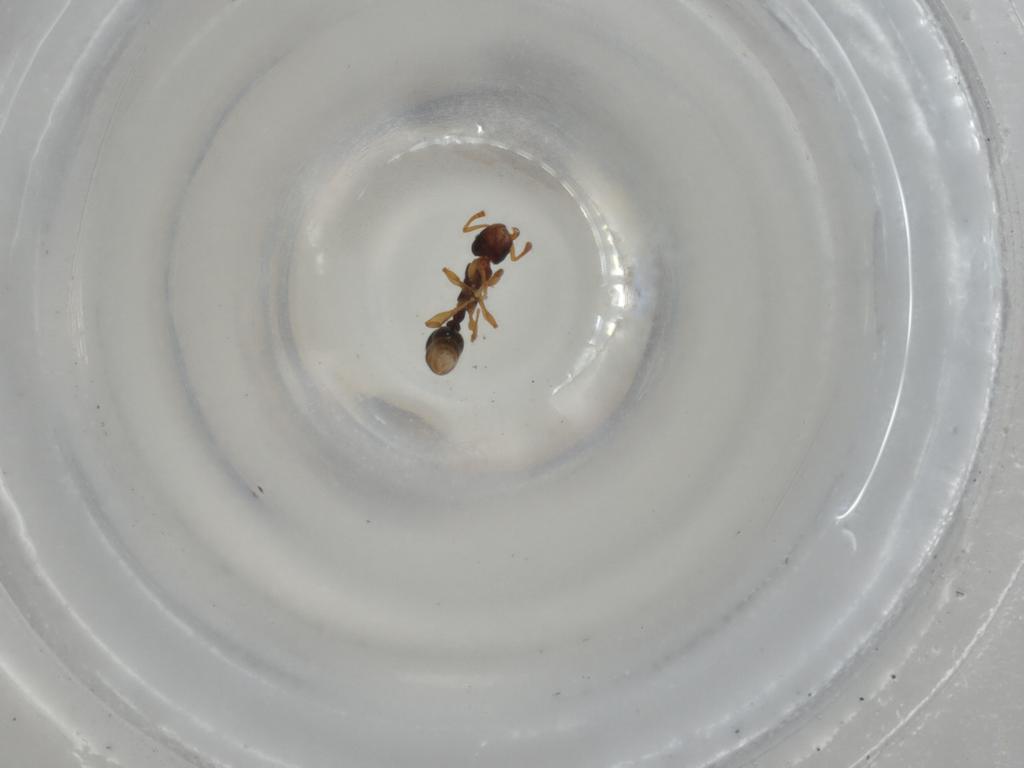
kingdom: Animalia
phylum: Arthropoda
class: Insecta
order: Hymenoptera
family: Formicidae
